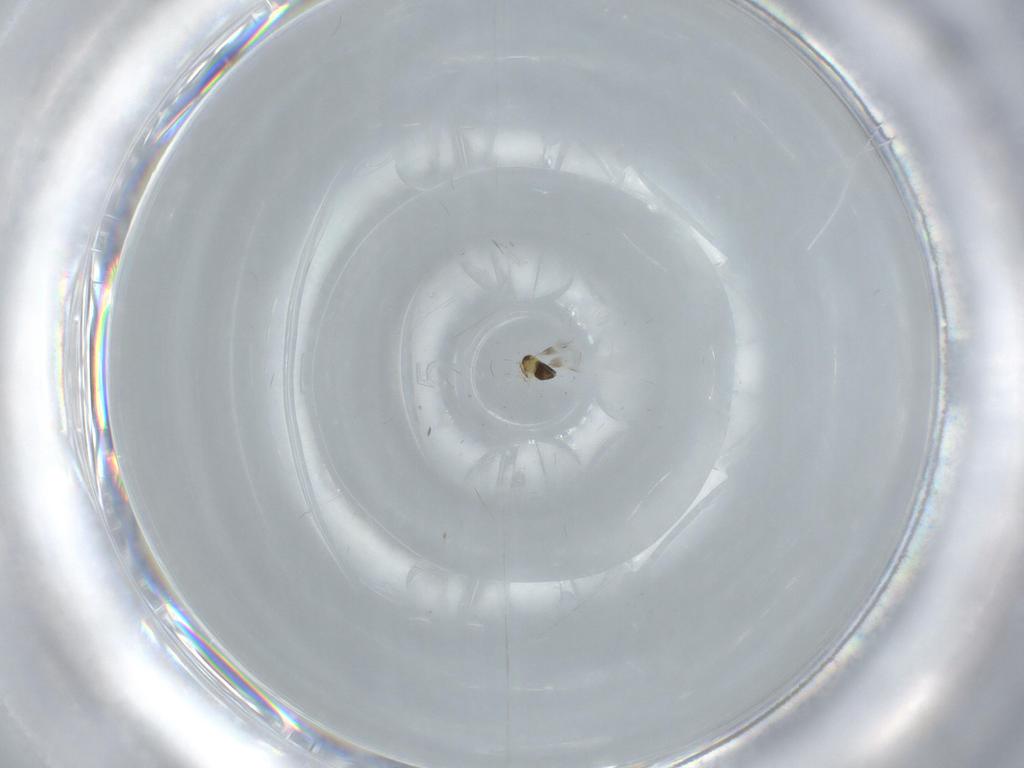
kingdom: Animalia
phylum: Arthropoda
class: Insecta
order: Hymenoptera
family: Signiphoridae
